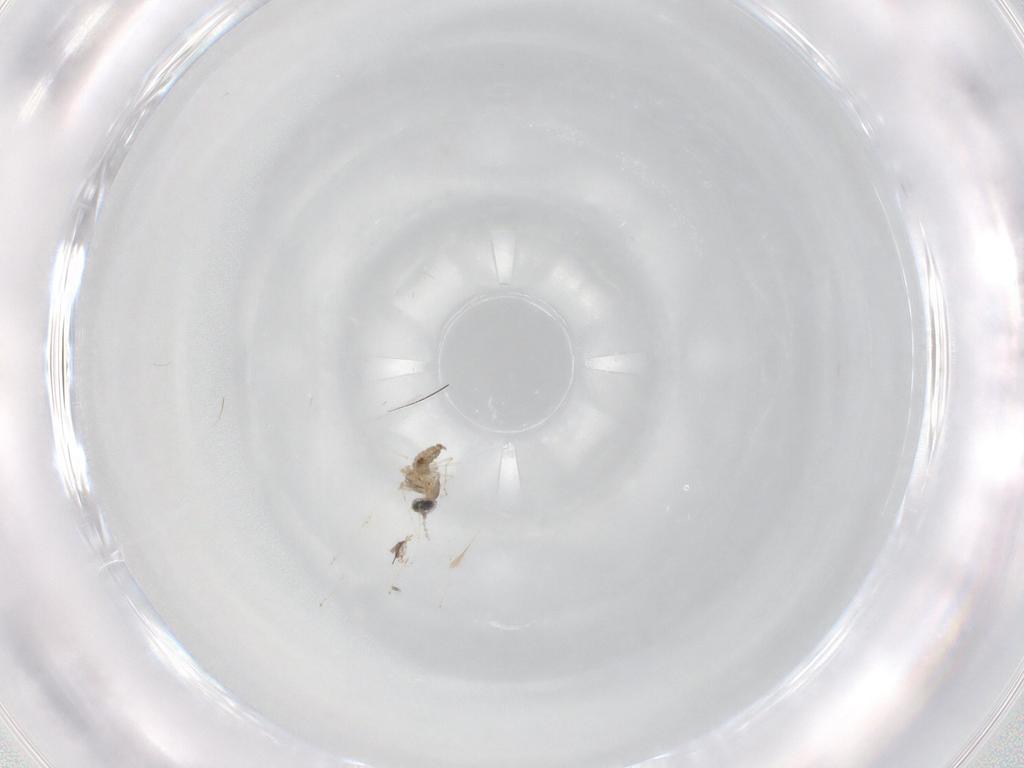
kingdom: Animalia
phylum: Arthropoda
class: Insecta
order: Diptera
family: Cecidomyiidae
